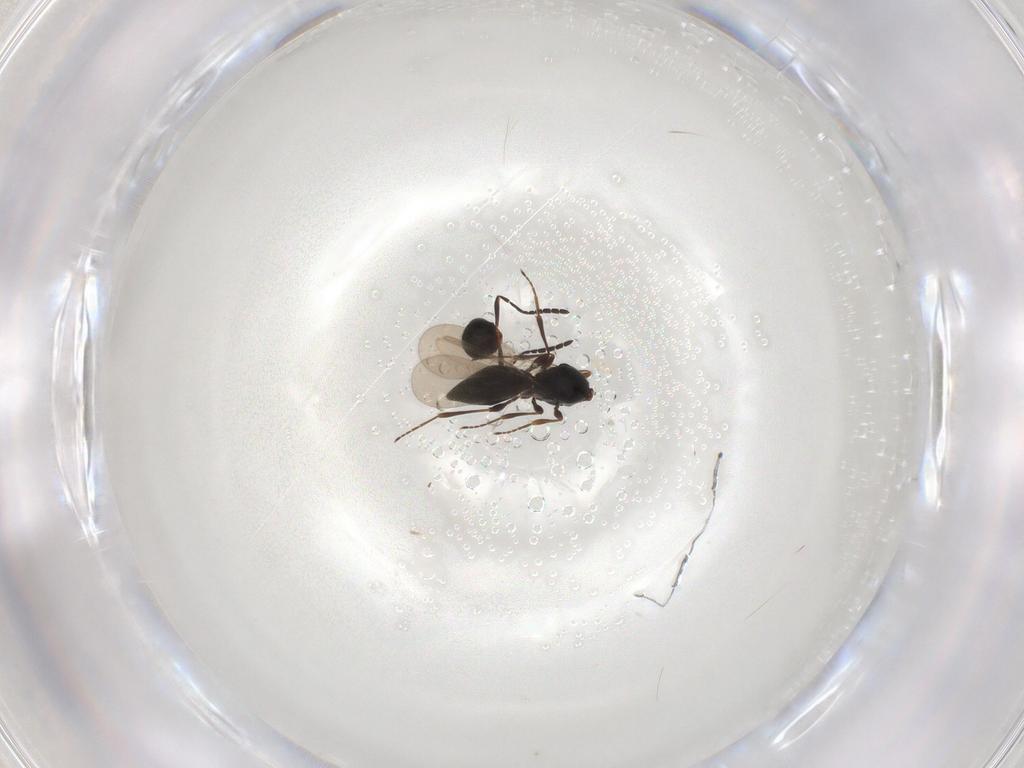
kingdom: Animalia
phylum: Arthropoda
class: Insecta
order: Hymenoptera
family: Platygastridae
